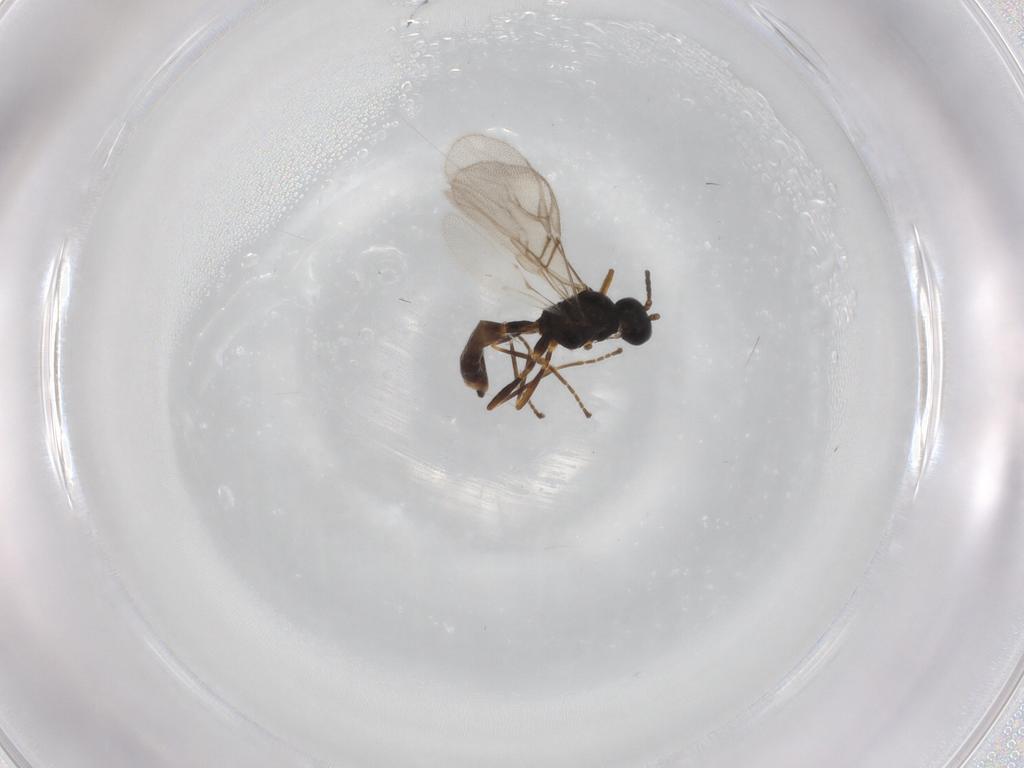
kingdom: Animalia
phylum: Arthropoda
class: Insecta
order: Hymenoptera
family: Braconidae
